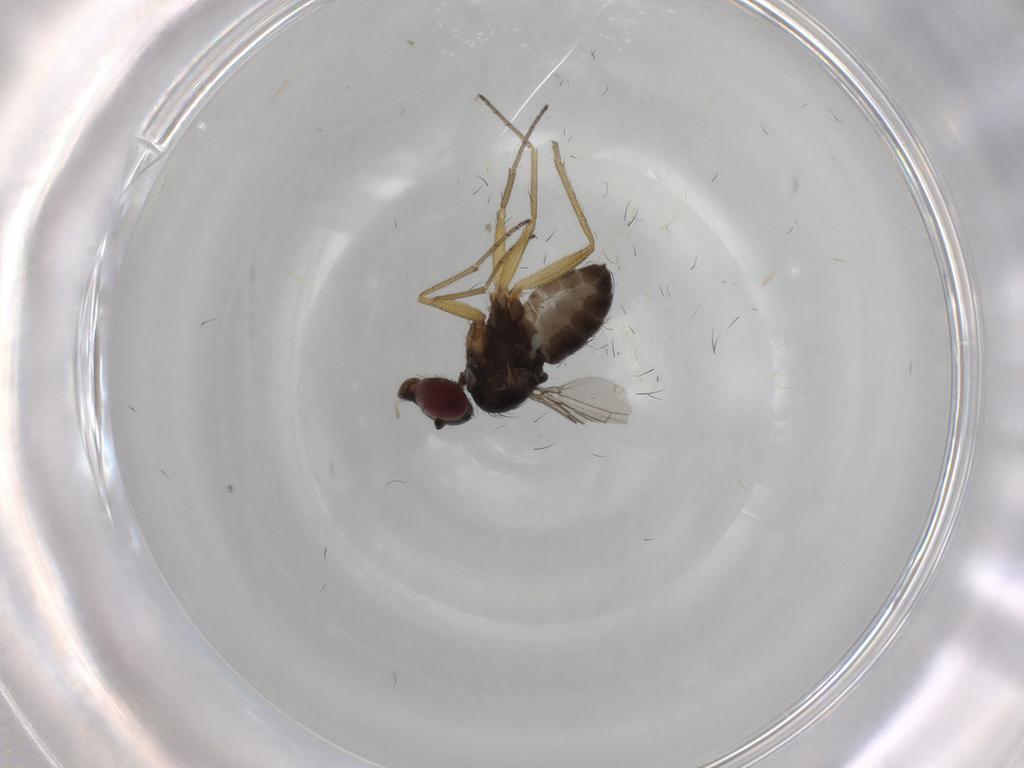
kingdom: Animalia
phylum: Arthropoda
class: Insecta
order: Diptera
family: Dolichopodidae
